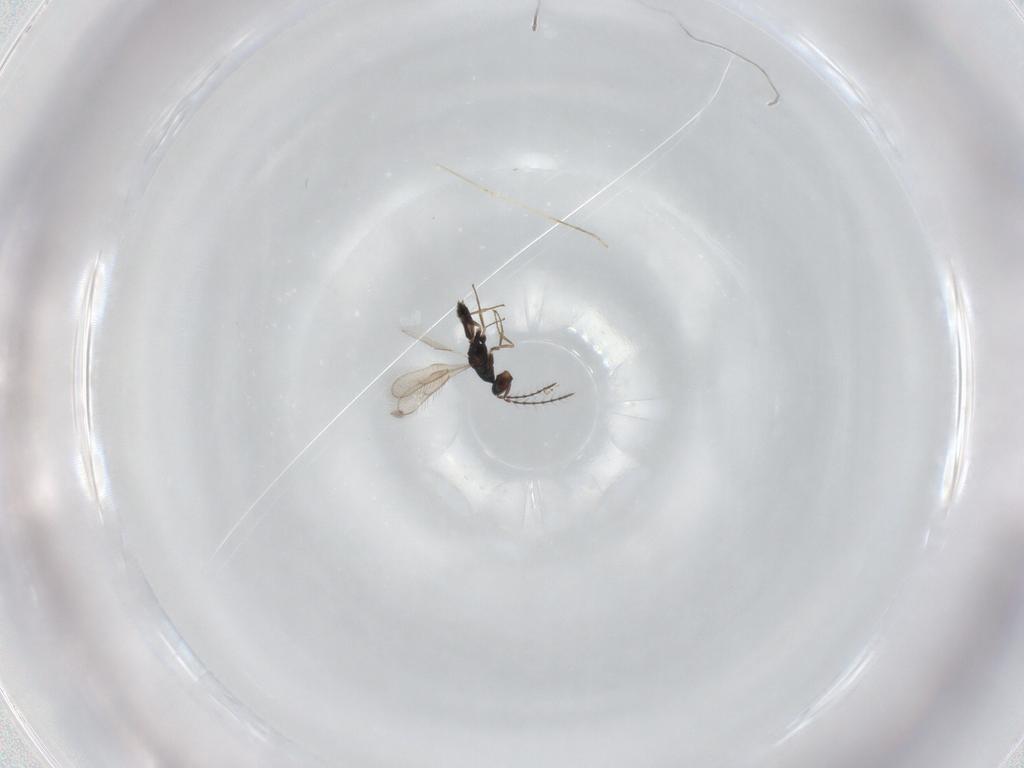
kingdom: Animalia
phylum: Arthropoda
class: Insecta
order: Hymenoptera
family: Pteromalidae
